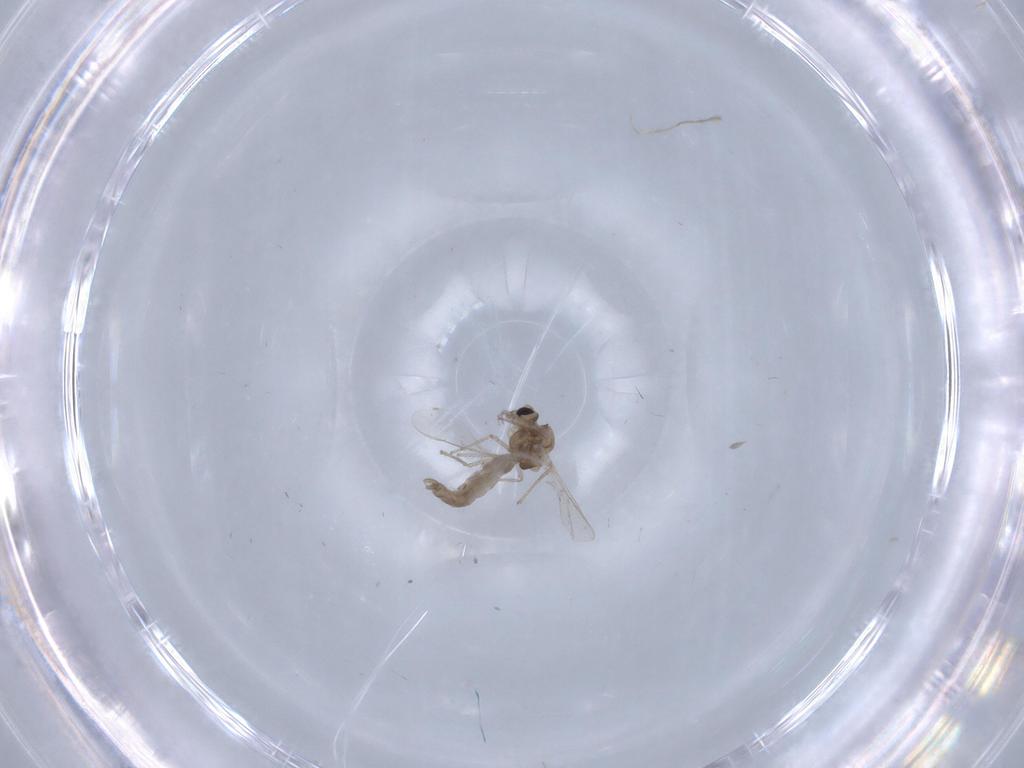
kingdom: Animalia
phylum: Arthropoda
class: Insecta
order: Diptera
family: Chironomidae
